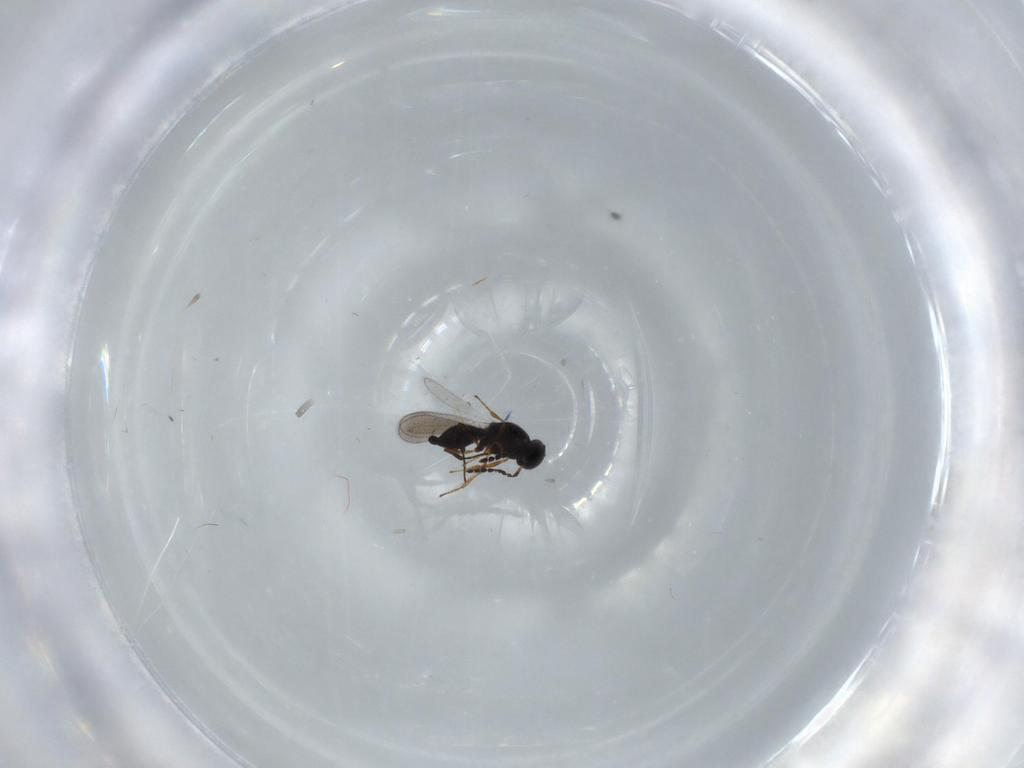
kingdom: Animalia
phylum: Arthropoda
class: Insecta
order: Hymenoptera
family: Platygastridae
